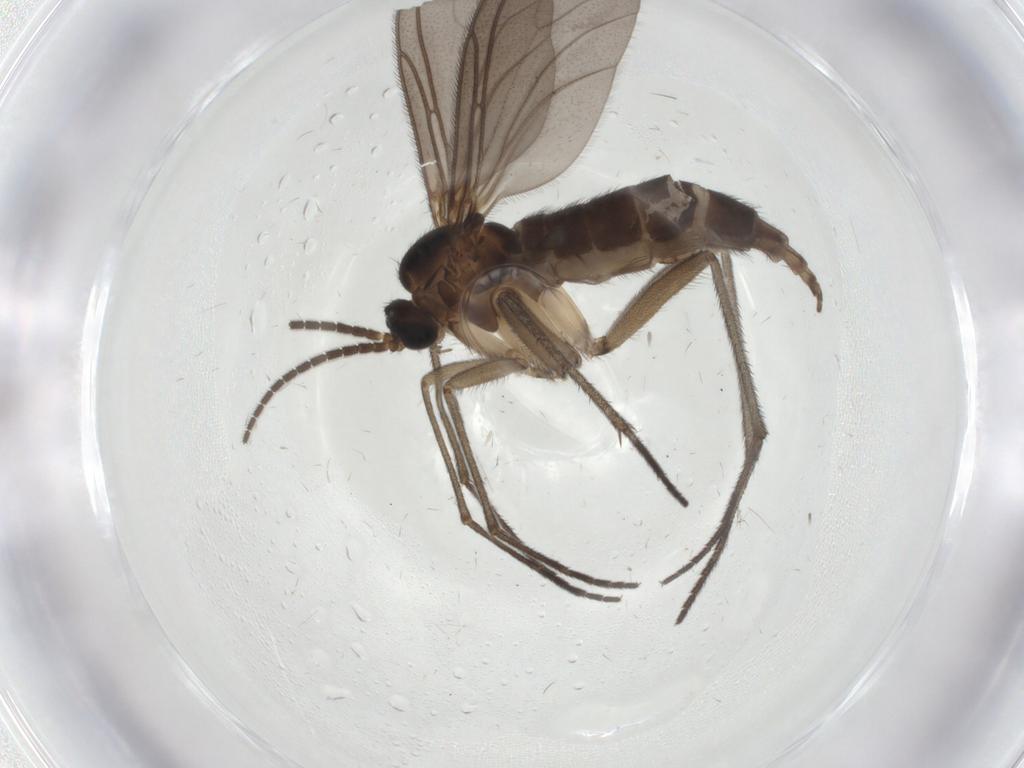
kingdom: Animalia
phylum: Arthropoda
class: Insecta
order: Diptera
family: Sciaridae
